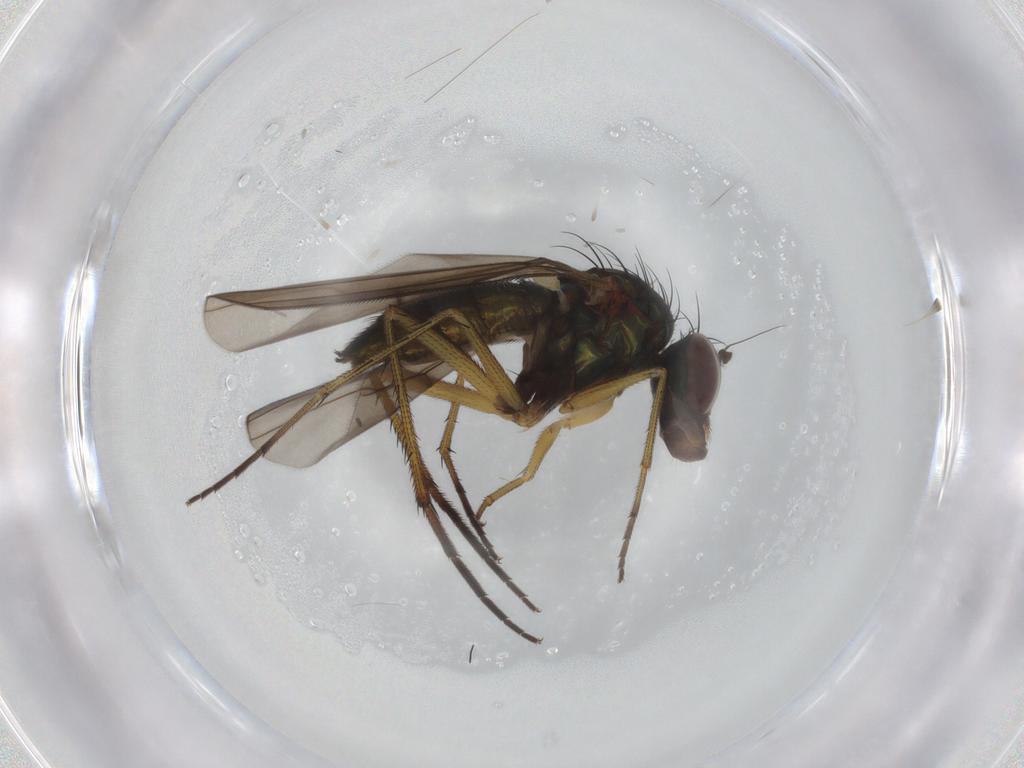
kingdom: Animalia
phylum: Arthropoda
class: Insecta
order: Diptera
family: Dolichopodidae
